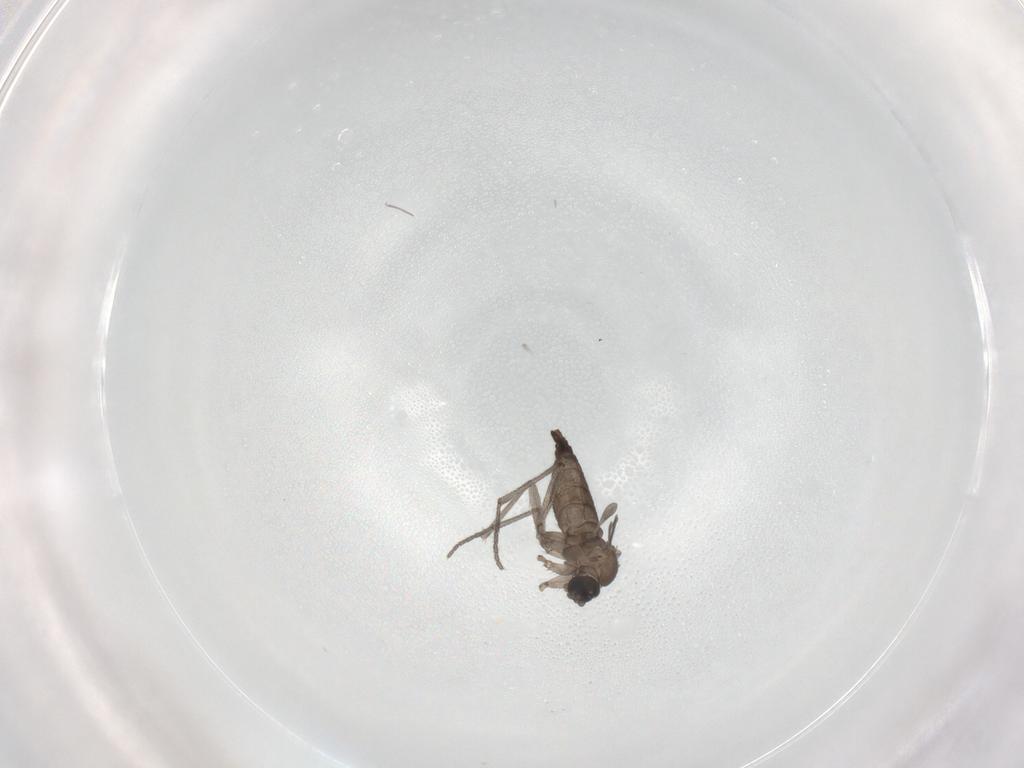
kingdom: Animalia
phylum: Arthropoda
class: Insecta
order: Diptera
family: Sciaridae
